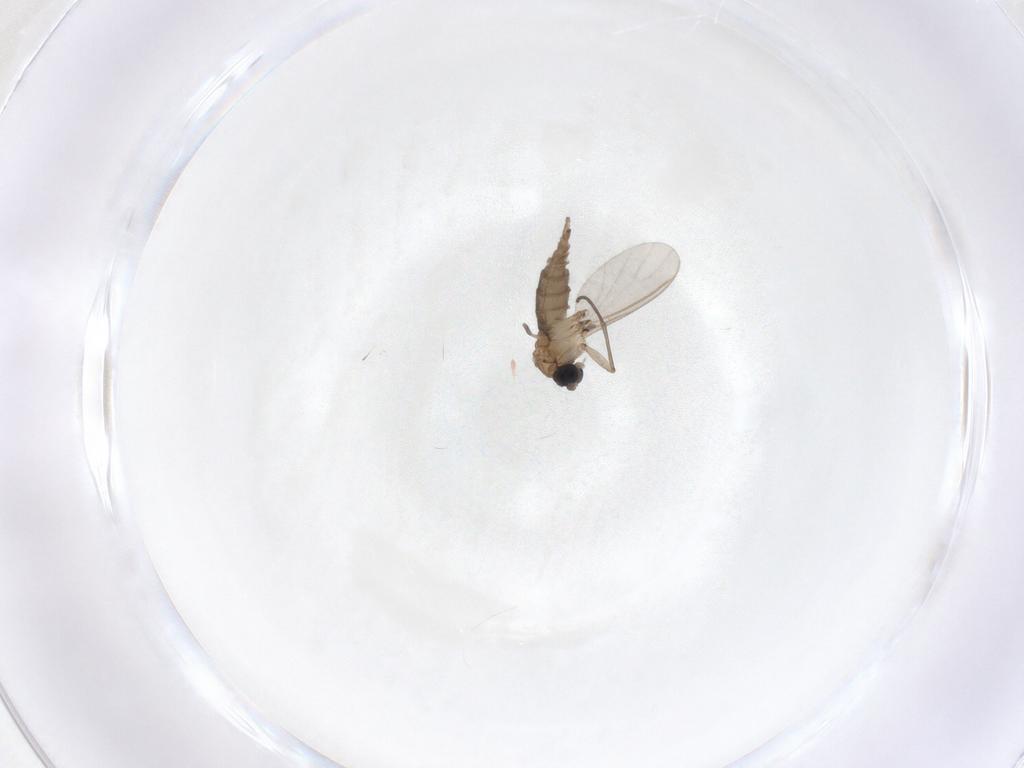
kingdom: Animalia
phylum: Arthropoda
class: Insecta
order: Diptera
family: Sciaridae
